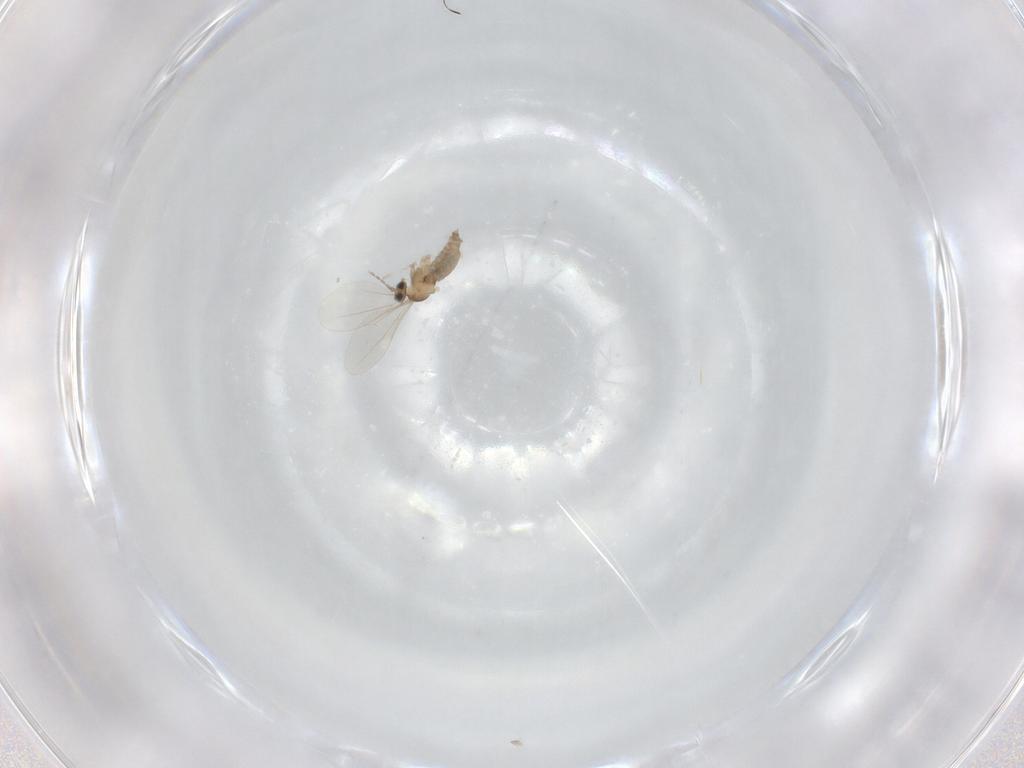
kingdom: Animalia
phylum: Arthropoda
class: Insecta
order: Diptera
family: Cecidomyiidae
